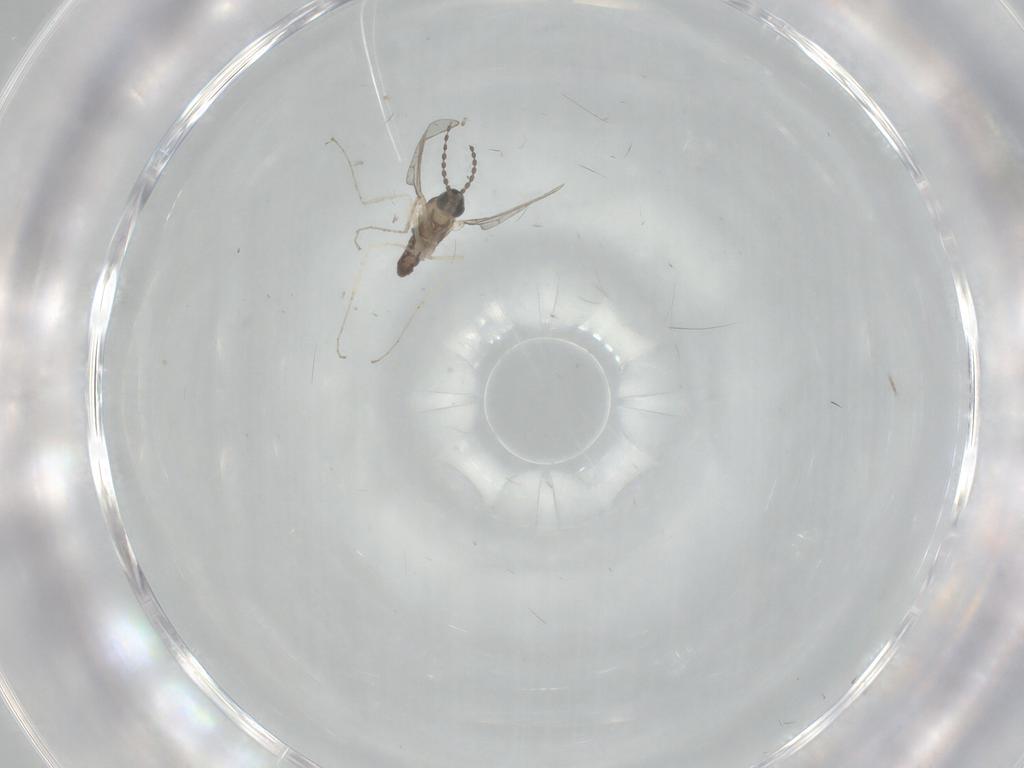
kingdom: Animalia
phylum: Arthropoda
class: Insecta
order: Diptera
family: Cecidomyiidae
